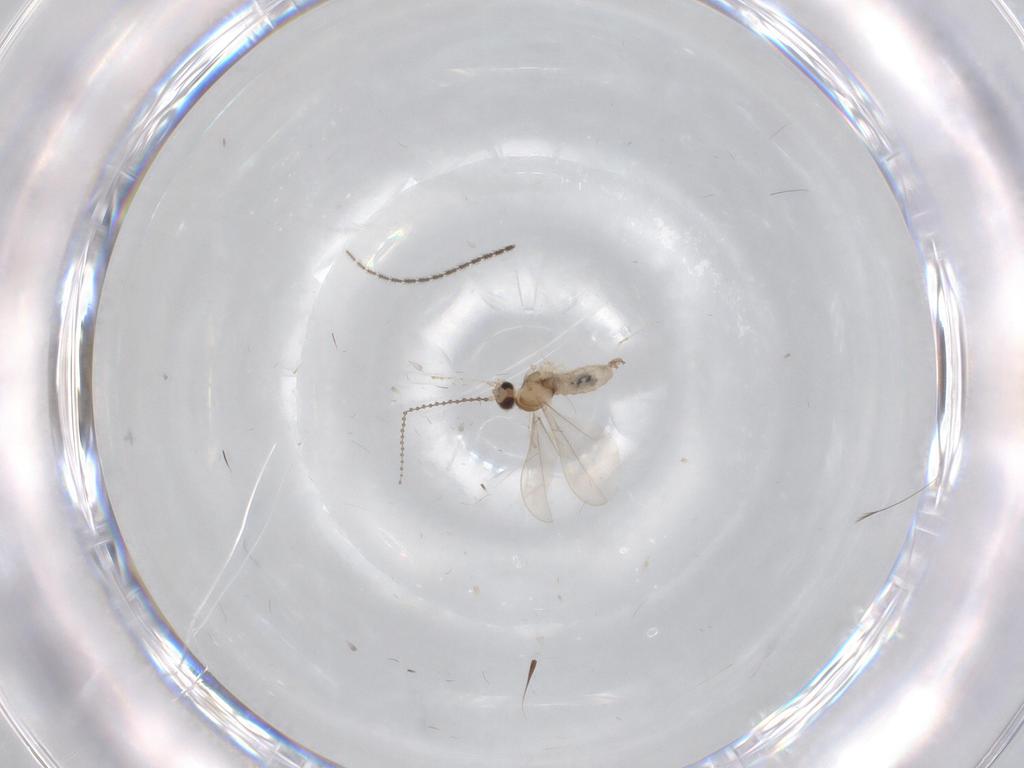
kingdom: Animalia
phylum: Arthropoda
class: Insecta
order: Diptera
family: Cecidomyiidae
